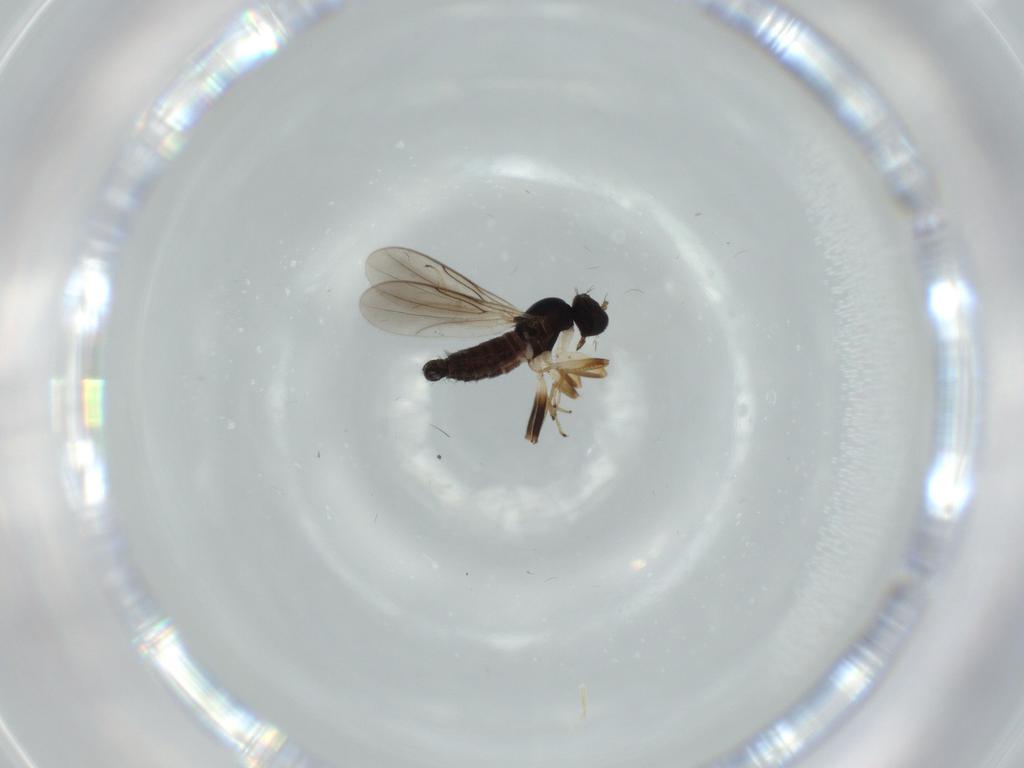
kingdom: Animalia
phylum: Arthropoda
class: Insecta
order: Diptera
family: Hybotidae
